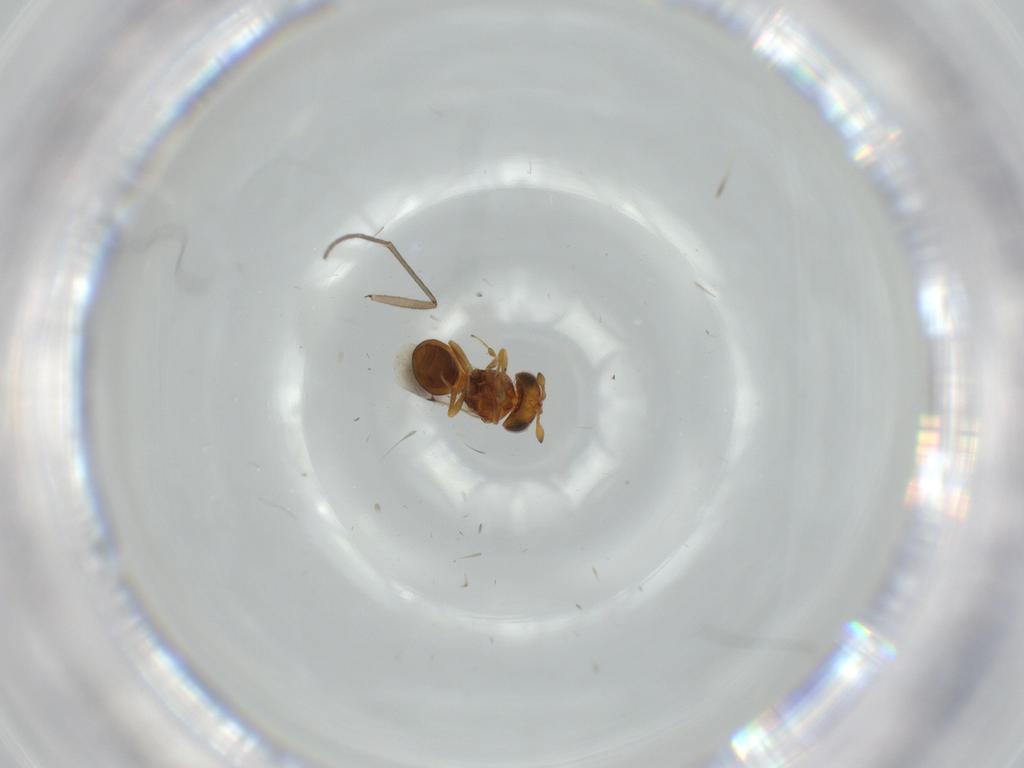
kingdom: Animalia
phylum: Arthropoda
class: Insecta
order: Hymenoptera
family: Scelionidae
